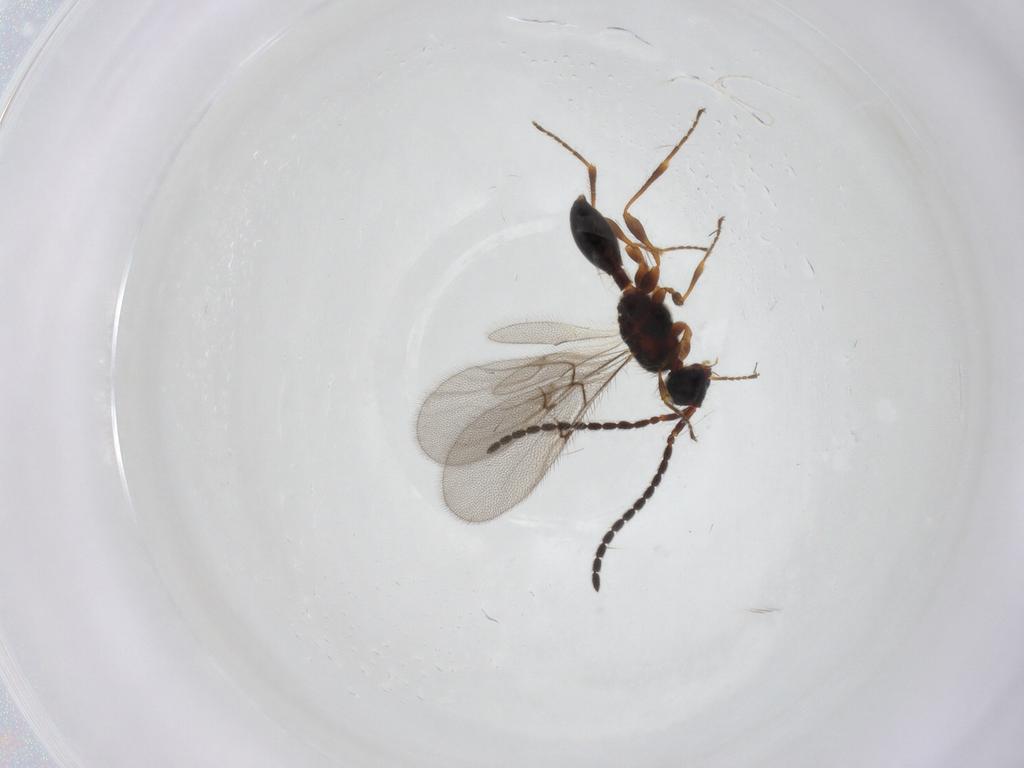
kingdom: Animalia
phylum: Arthropoda
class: Insecta
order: Hymenoptera
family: Diapriidae
